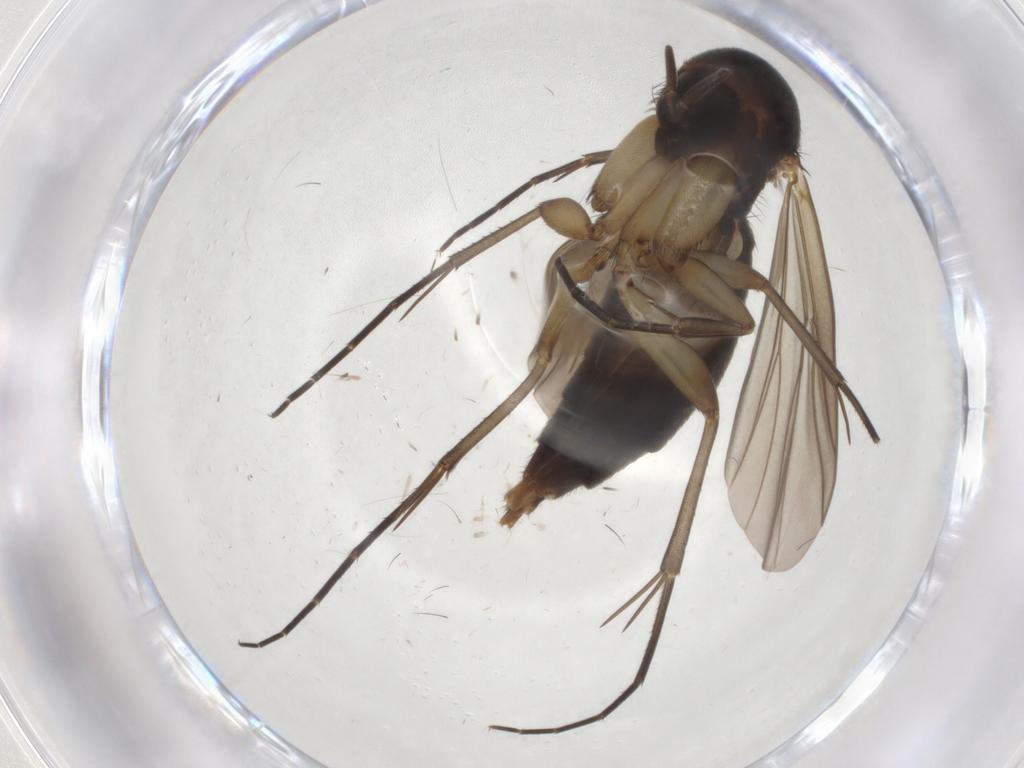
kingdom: Animalia
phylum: Arthropoda
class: Insecta
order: Diptera
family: Mycetophilidae
